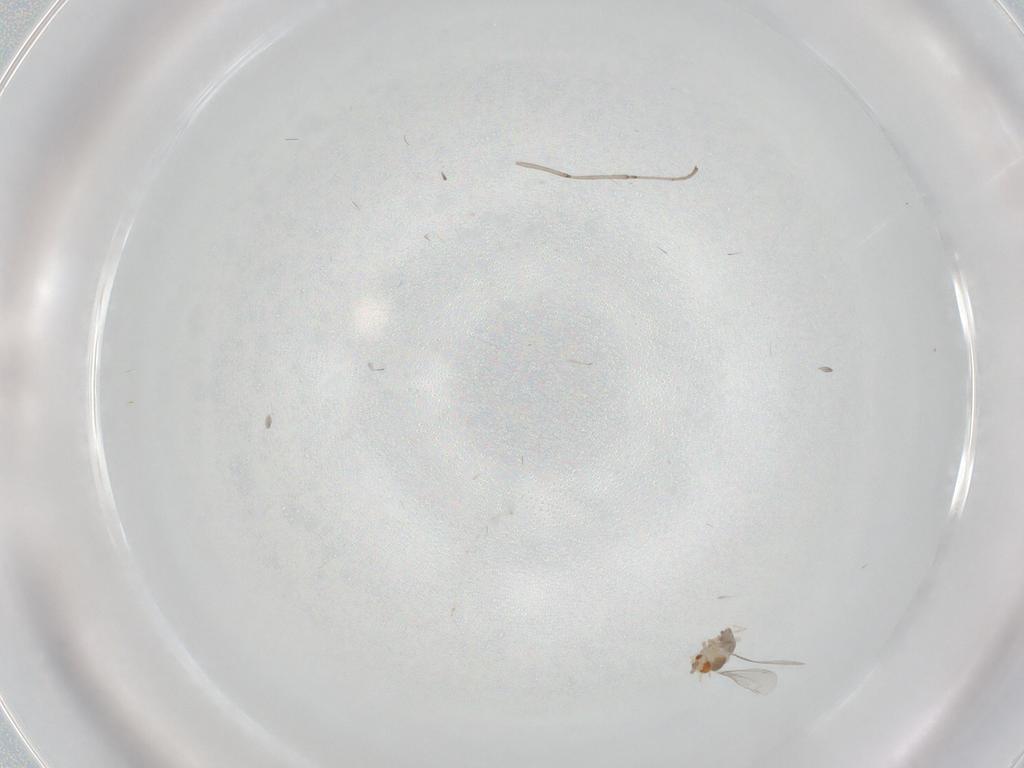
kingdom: Animalia
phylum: Arthropoda
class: Insecta
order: Diptera
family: Cecidomyiidae
